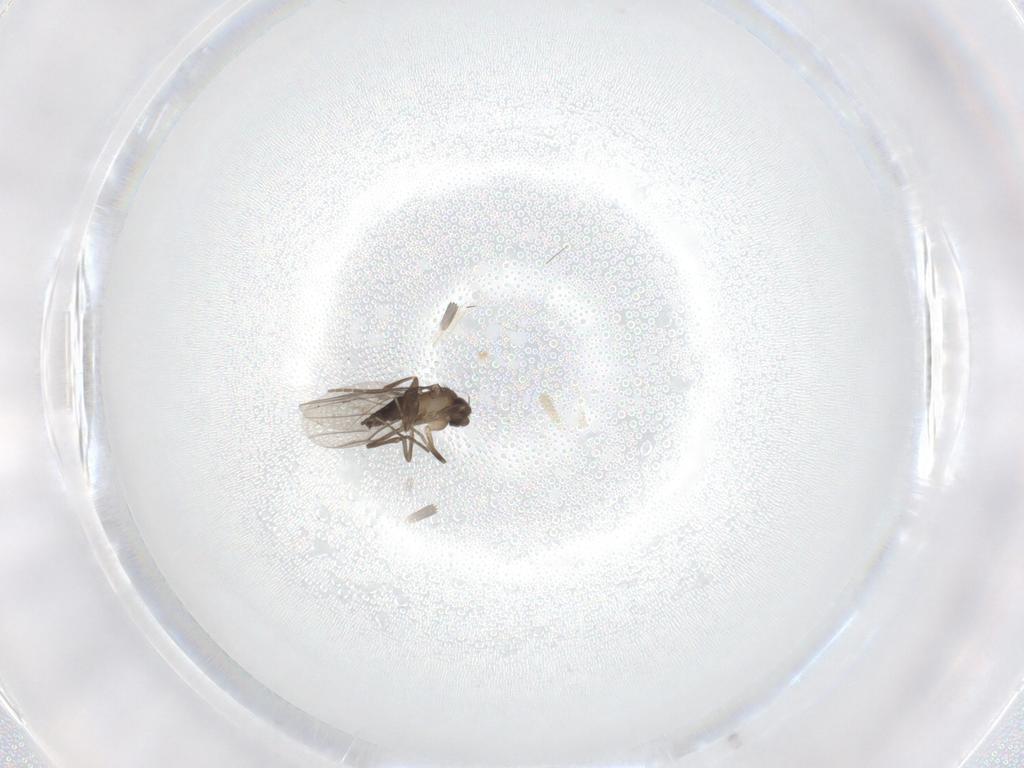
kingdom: Animalia
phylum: Arthropoda
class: Insecta
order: Diptera
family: Phoridae
